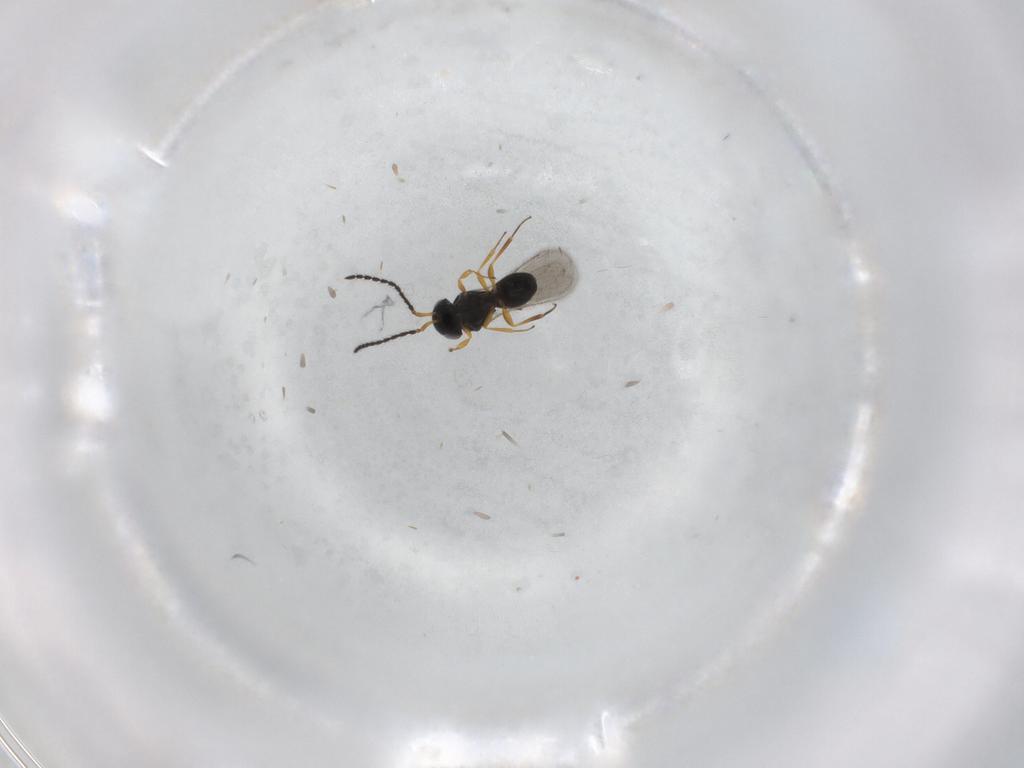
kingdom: Animalia
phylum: Arthropoda
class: Insecta
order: Hymenoptera
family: Scelionidae
